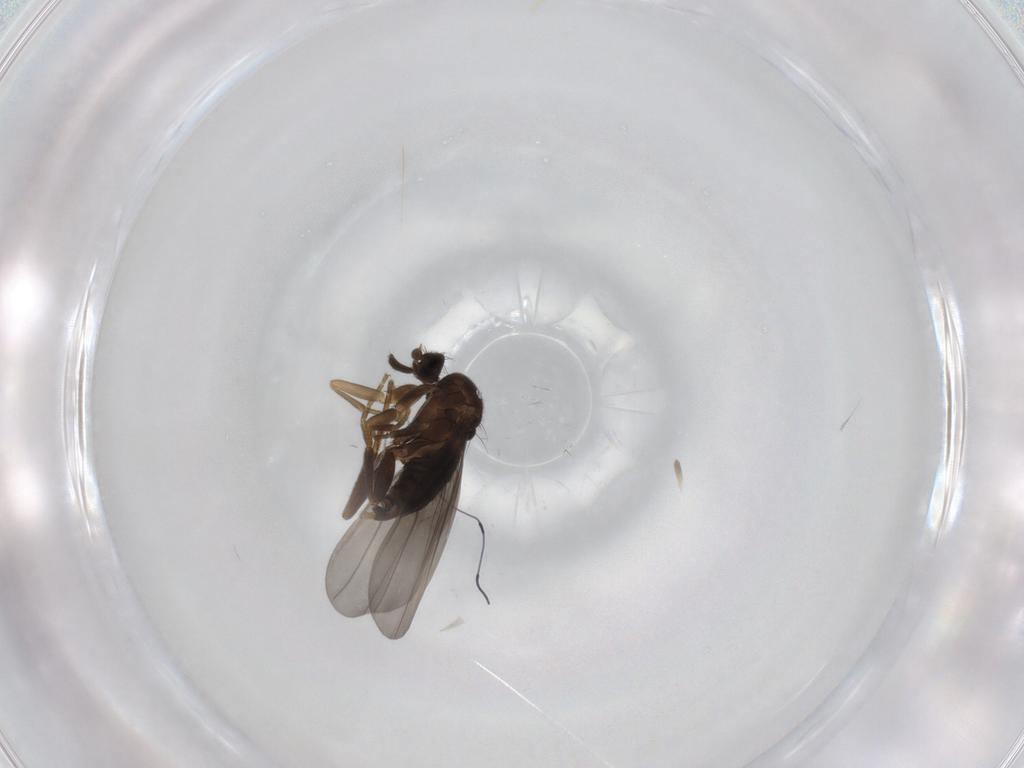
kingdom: Animalia
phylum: Arthropoda
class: Insecta
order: Diptera
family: Phoridae
